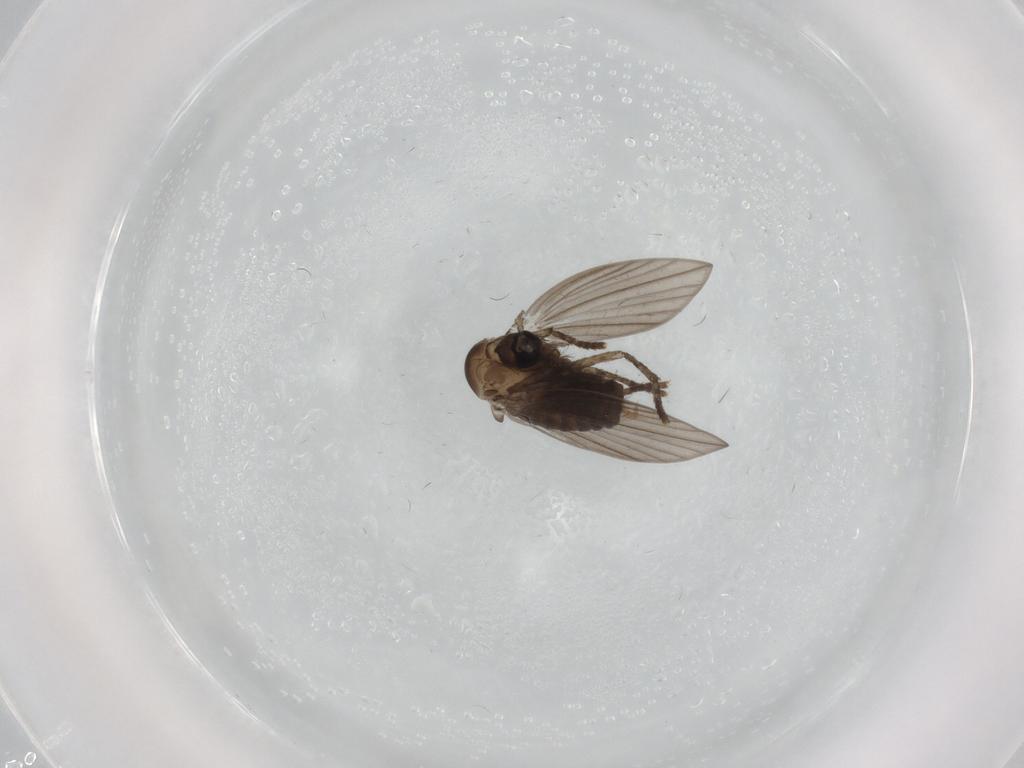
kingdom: Animalia
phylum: Arthropoda
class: Insecta
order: Diptera
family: Psychodidae
